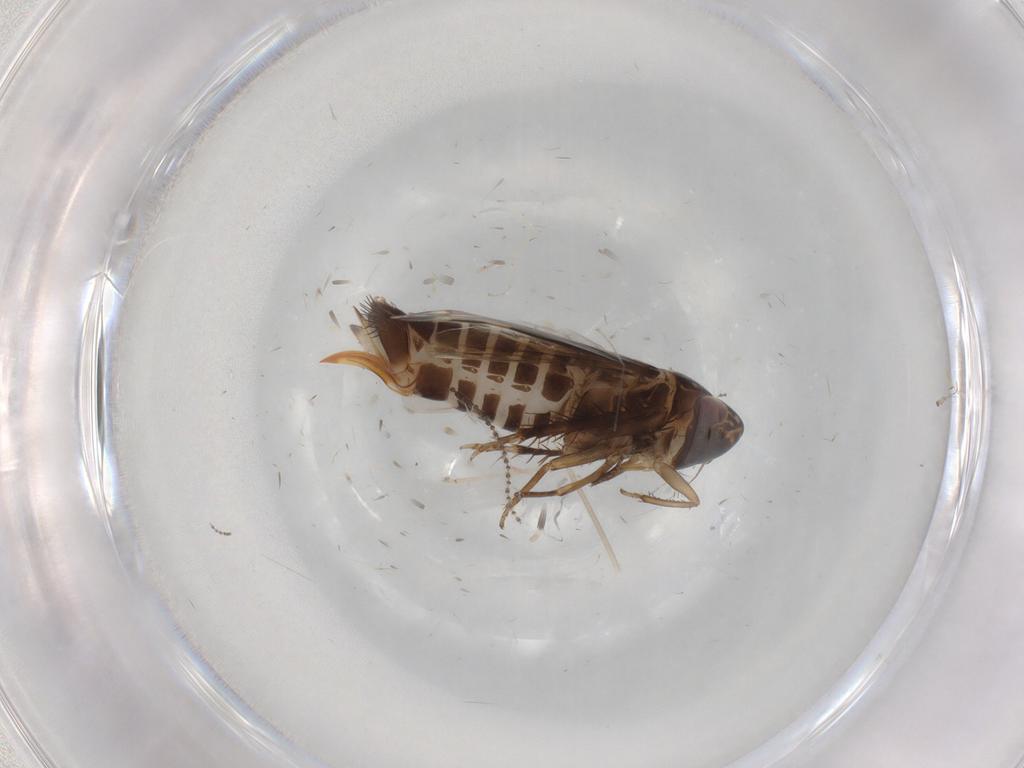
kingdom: Animalia
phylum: Arthropoda
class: Insecta
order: Hemiptera
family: Cicadellidae
